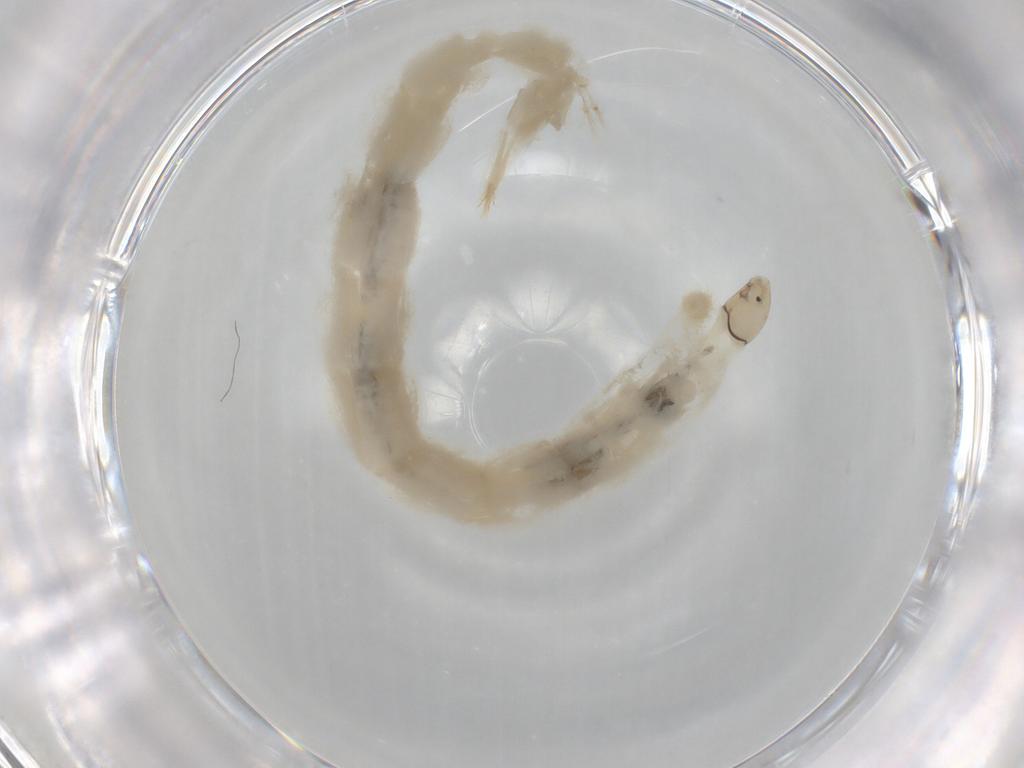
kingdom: Animalia
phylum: Arthropoda
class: Insecta
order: Diptera
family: Chironomidae
